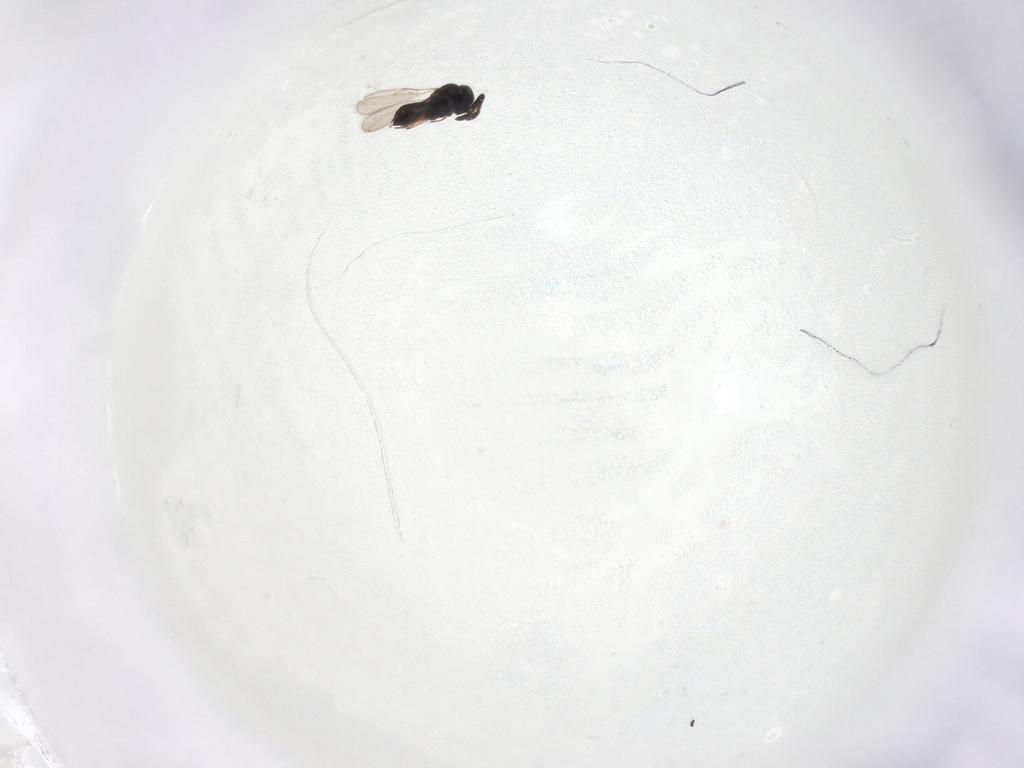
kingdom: Animalia
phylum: Arthropoda
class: Insecta
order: Hymenoptera
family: Scelionidae
